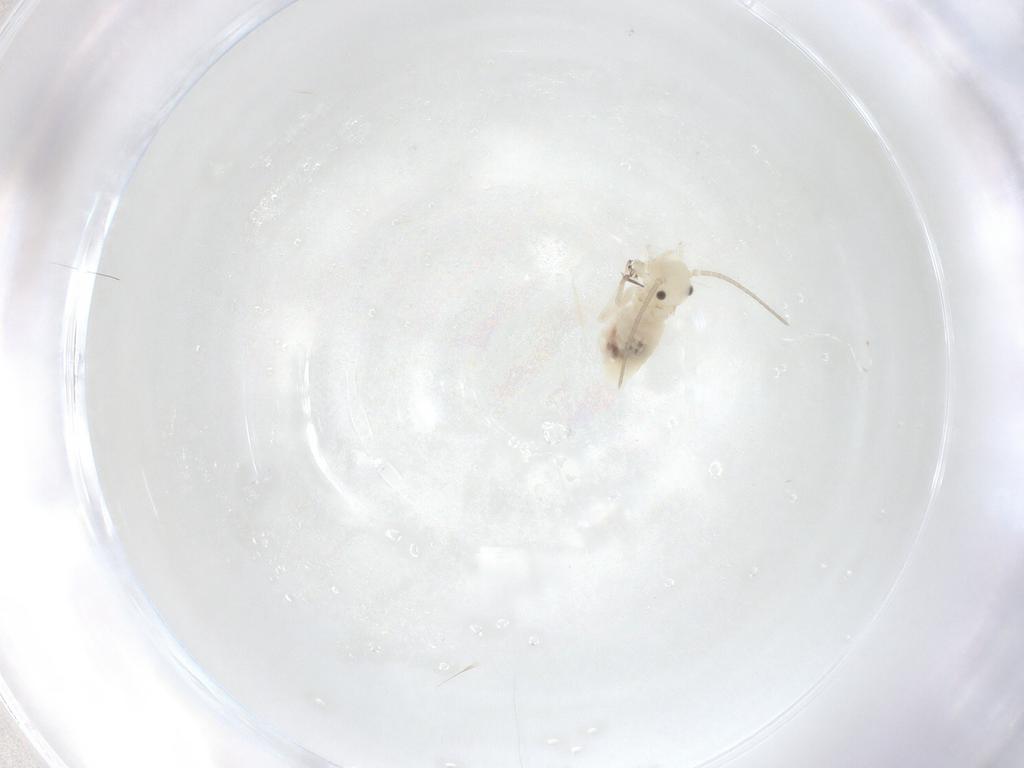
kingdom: Animalia
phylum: Arthropoda
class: Insecta
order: Psocodea
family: Caeciliusidae
